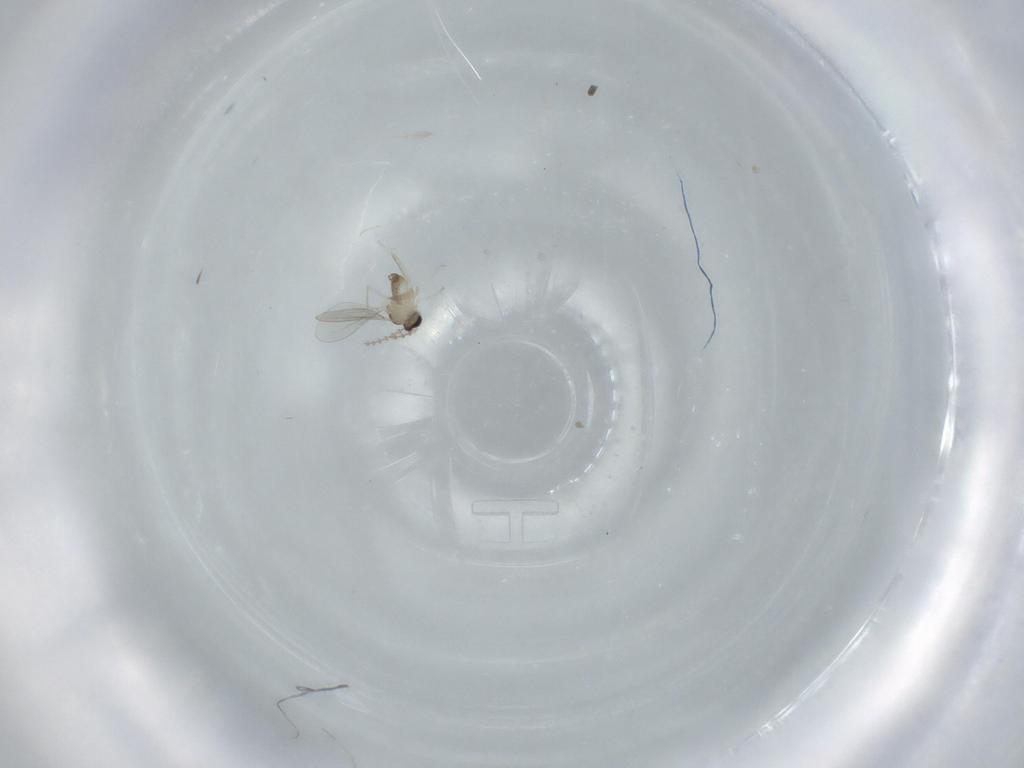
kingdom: Animalia
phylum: Arthropoda
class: Insecta
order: Diptera
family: Cecidomyiidae
